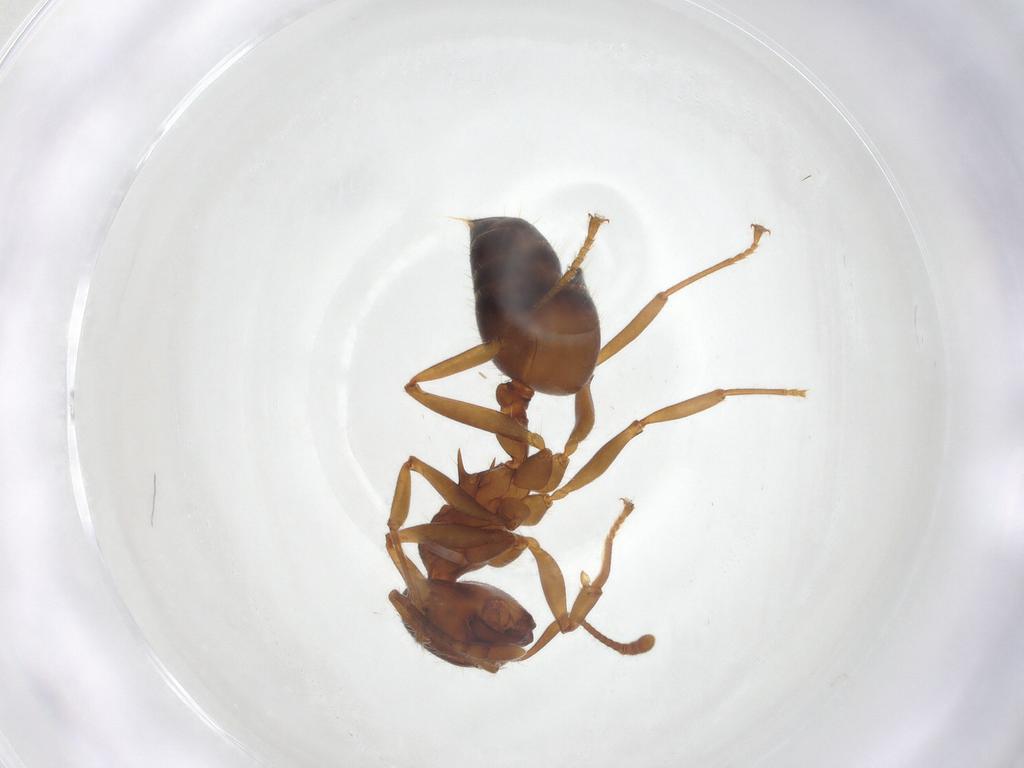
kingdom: Animalia
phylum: Arthropoda
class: Insecta
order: Hymenoptera
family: Formicidae
